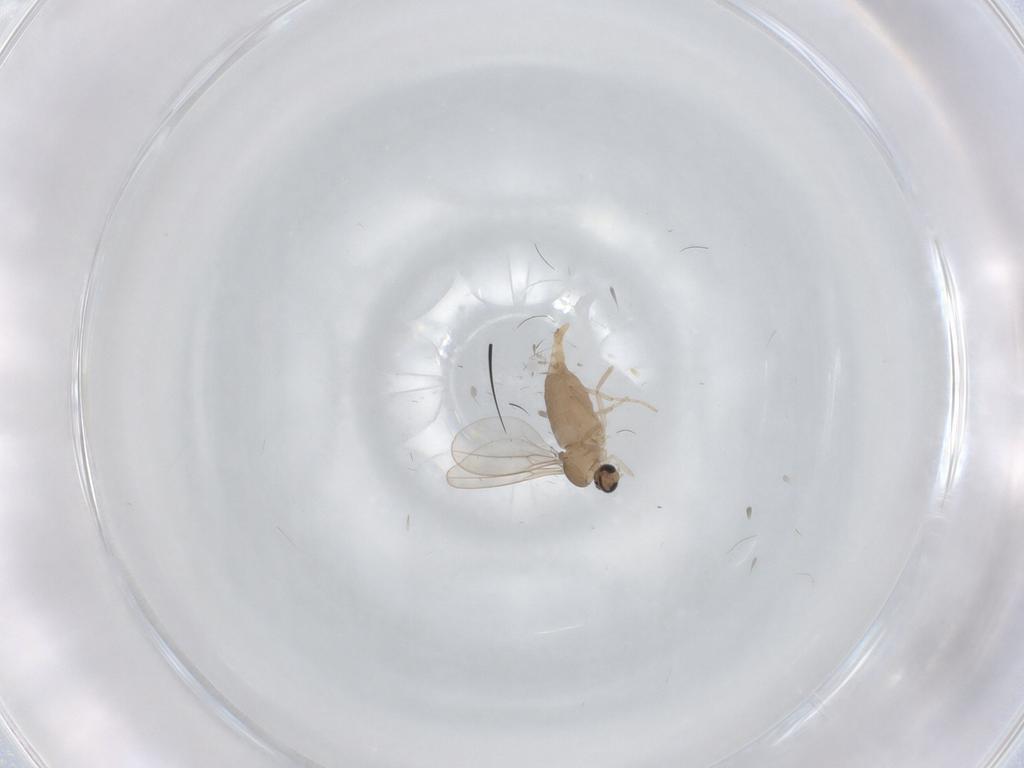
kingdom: Animalia
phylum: Arthropoda
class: Insecta
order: Diptera
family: Cecidomyiidae
